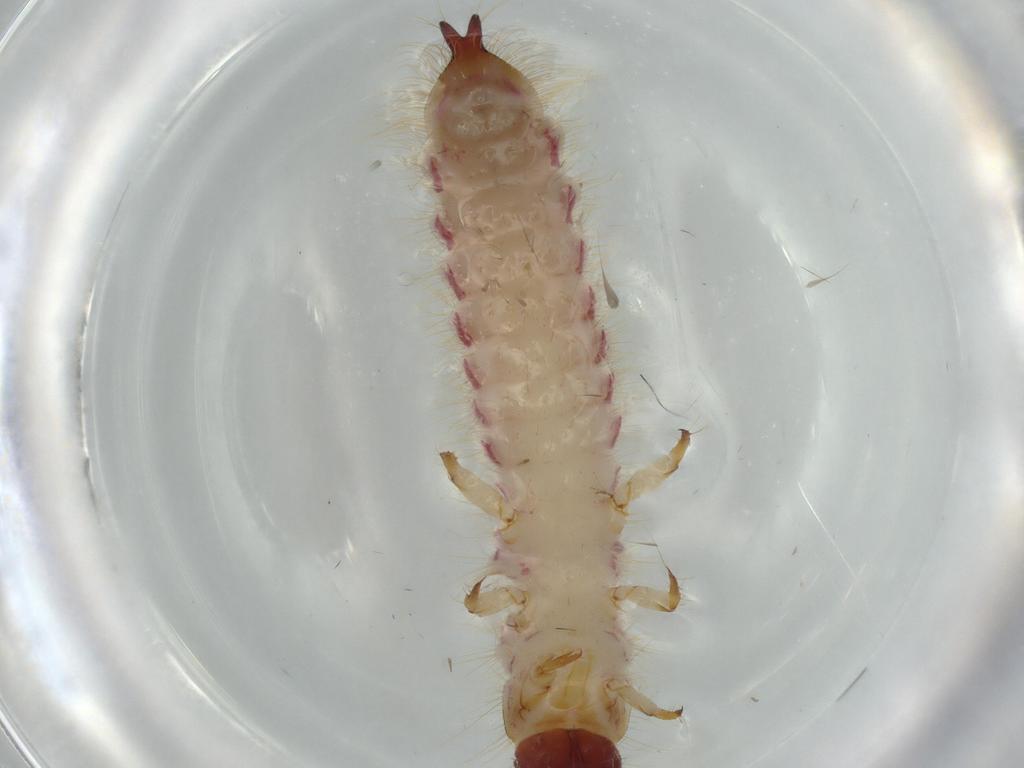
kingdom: Animalia
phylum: Arthropoda
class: Insecta
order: Coleoptera
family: Cleridae
